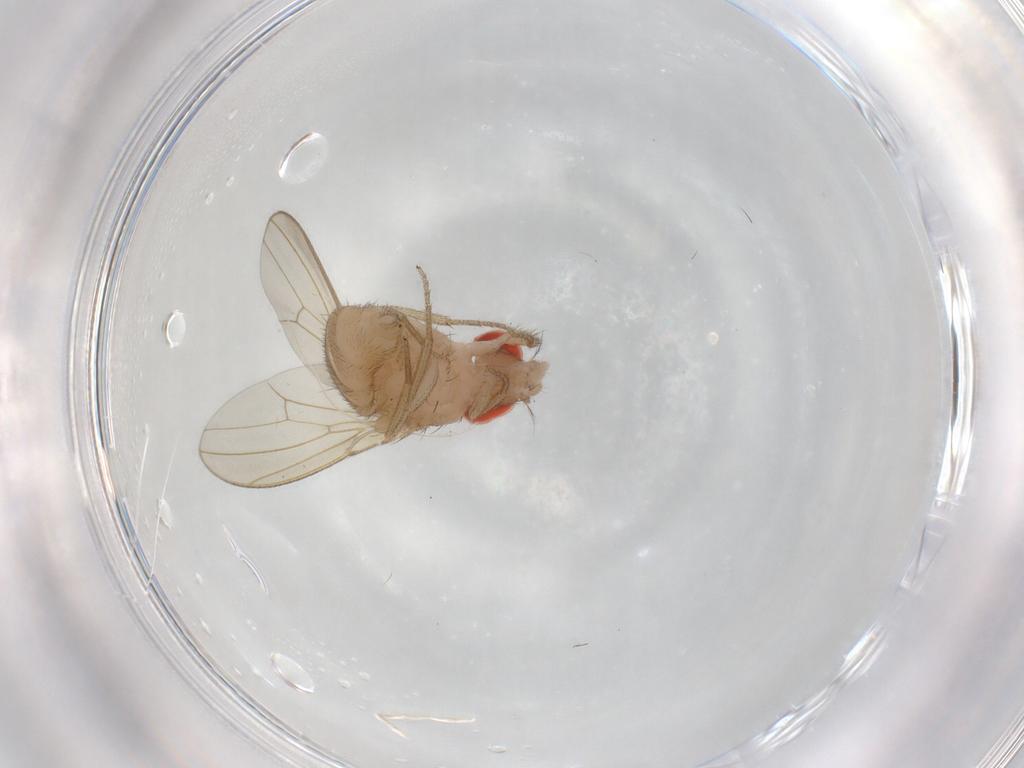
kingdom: Animalia
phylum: Arthropoda
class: Insecta
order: Diptera
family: Drosophilidae
